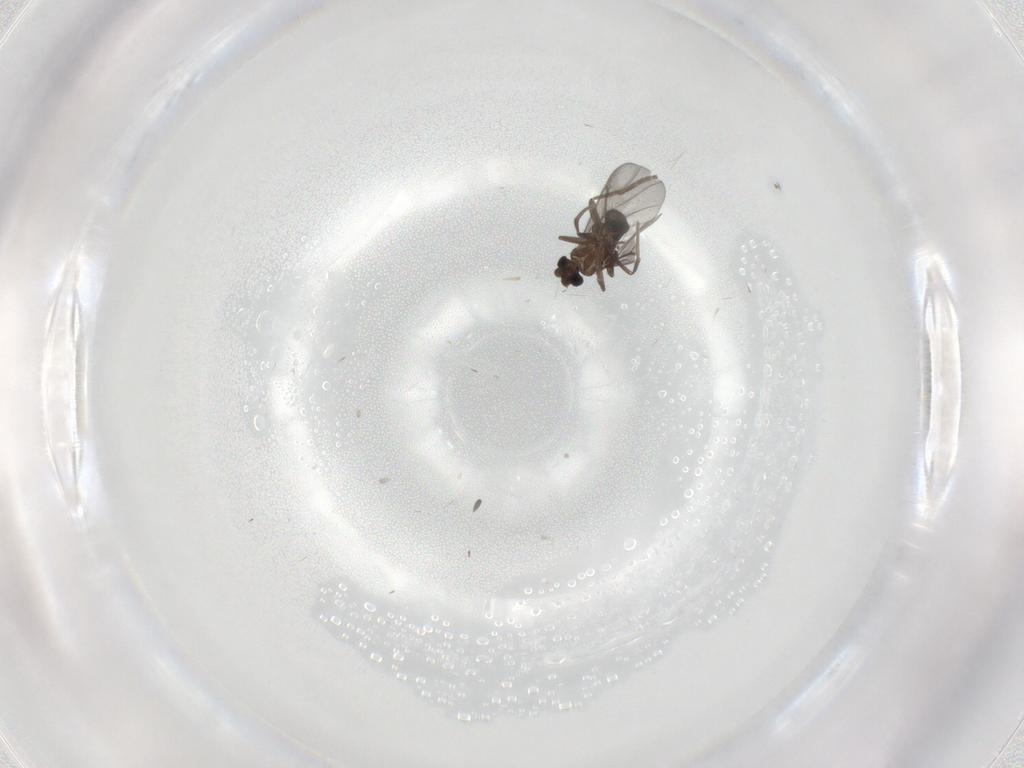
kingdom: Animalia
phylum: Arthropoda
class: Insecta
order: Diptera
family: Cecidomyiidae
